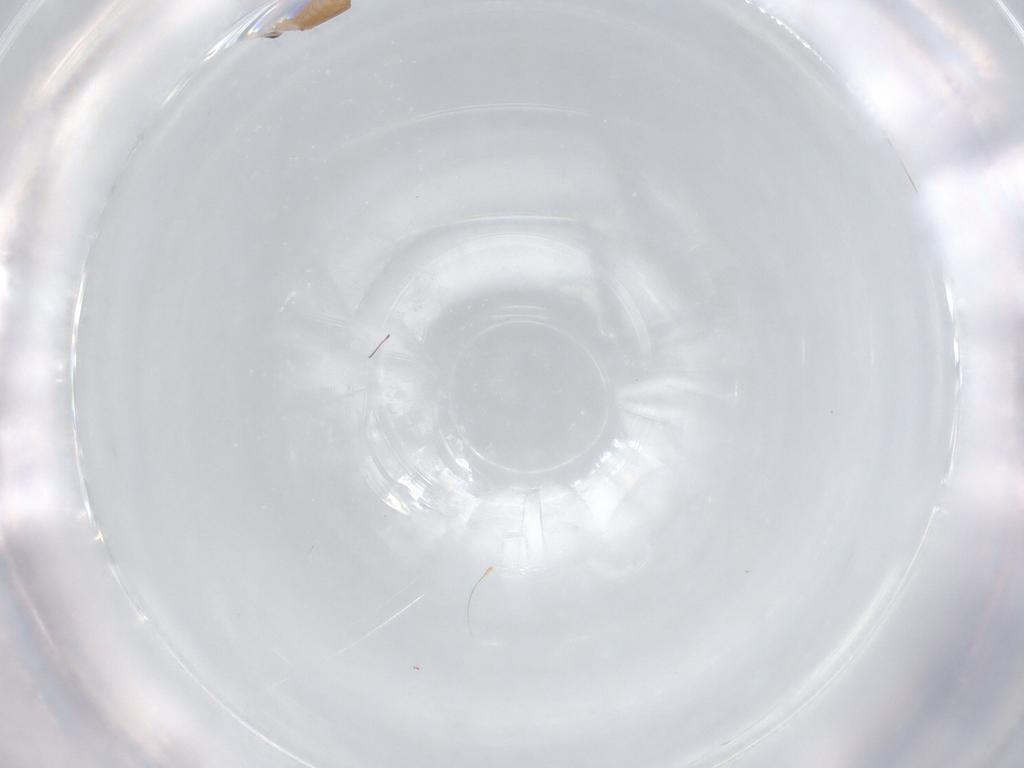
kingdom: Animalia
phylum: Arthropoda
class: Insecta
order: Diptera
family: Cecidomyiidae
